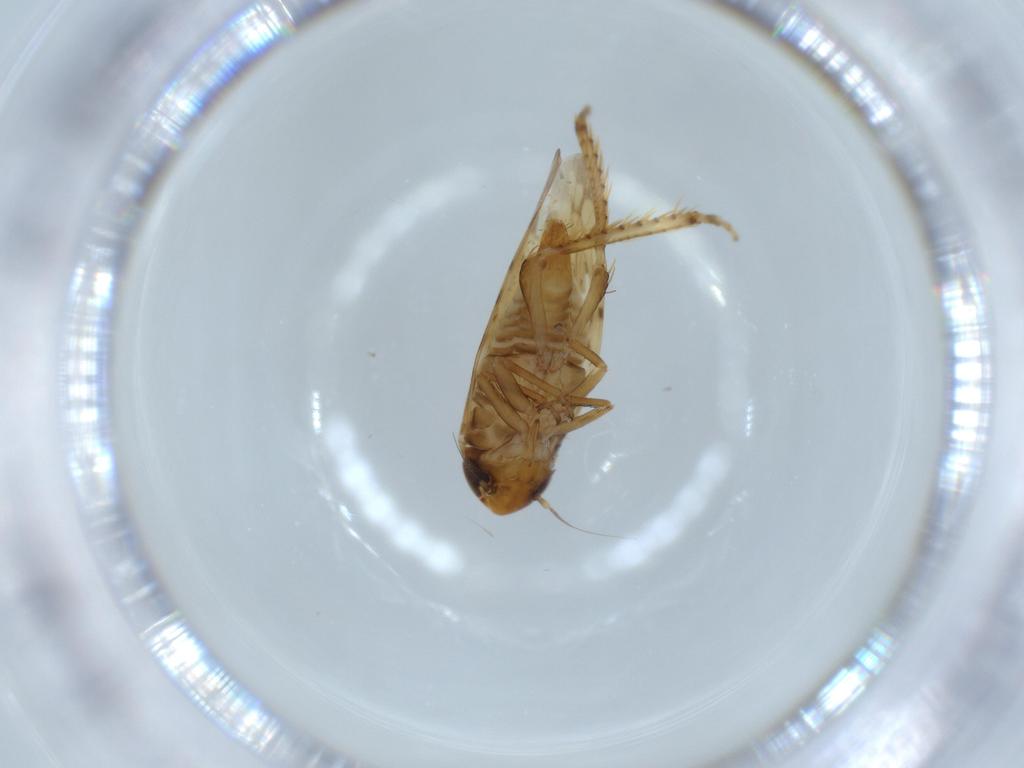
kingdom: Animalia
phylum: Arthropoda
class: Insecta
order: Hemiptera
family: Cicadellidae
